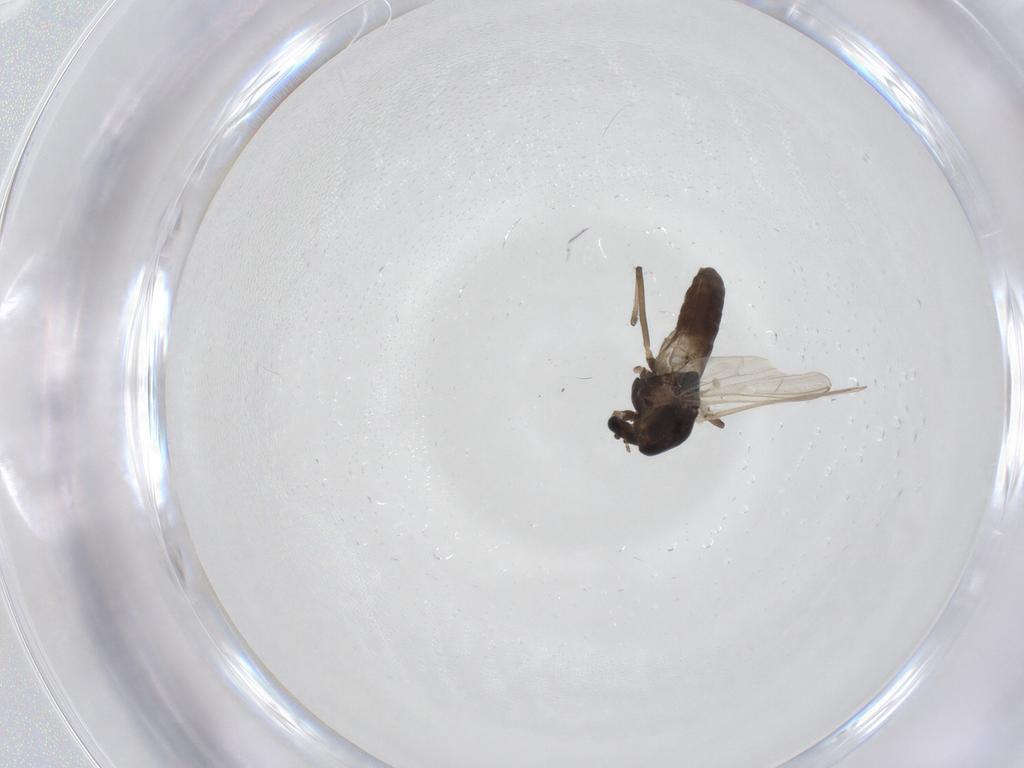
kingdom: Animalia
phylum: Arthropoda
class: Insecta
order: Diptera
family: Chironomidae
